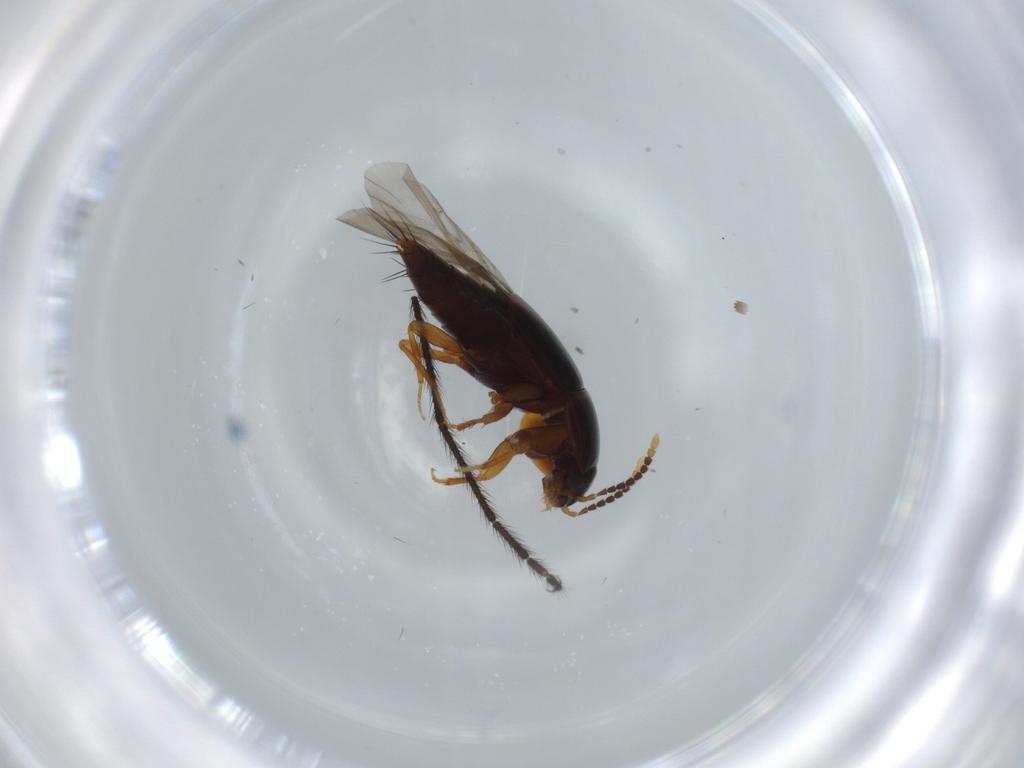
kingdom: Animalia
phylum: Arthropoda
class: Insecta
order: Coleoptera
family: Staphylinidae
